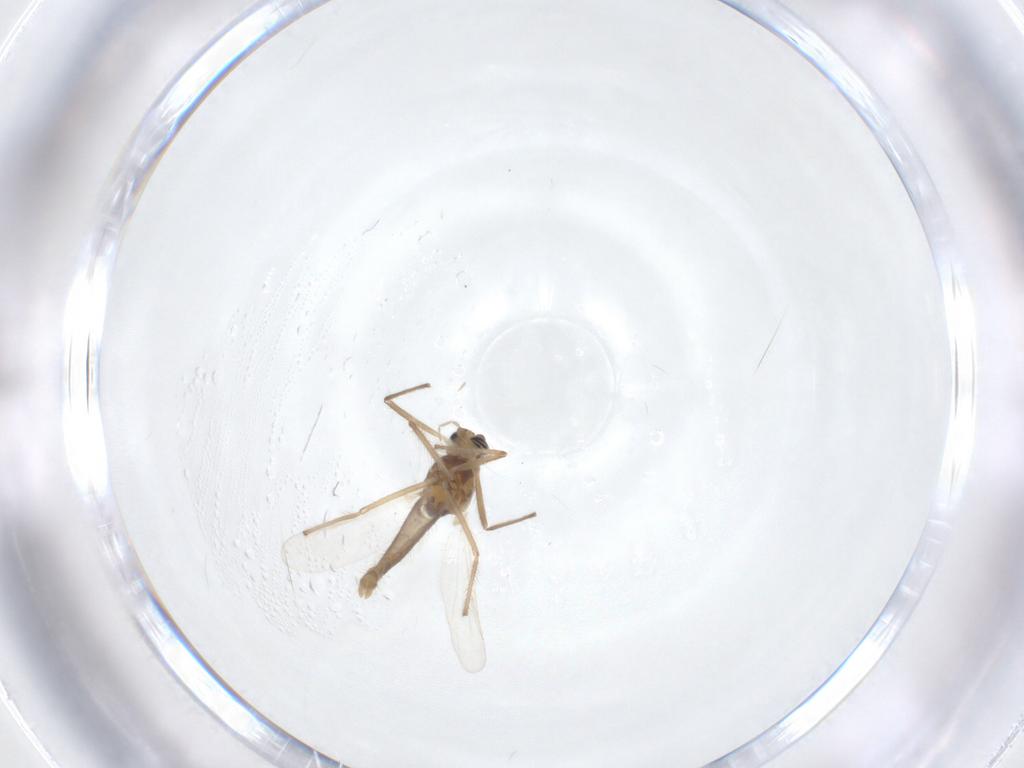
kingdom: Animalia
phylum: Arthropoda
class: Insecta
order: Diptera
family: Chironomidae
